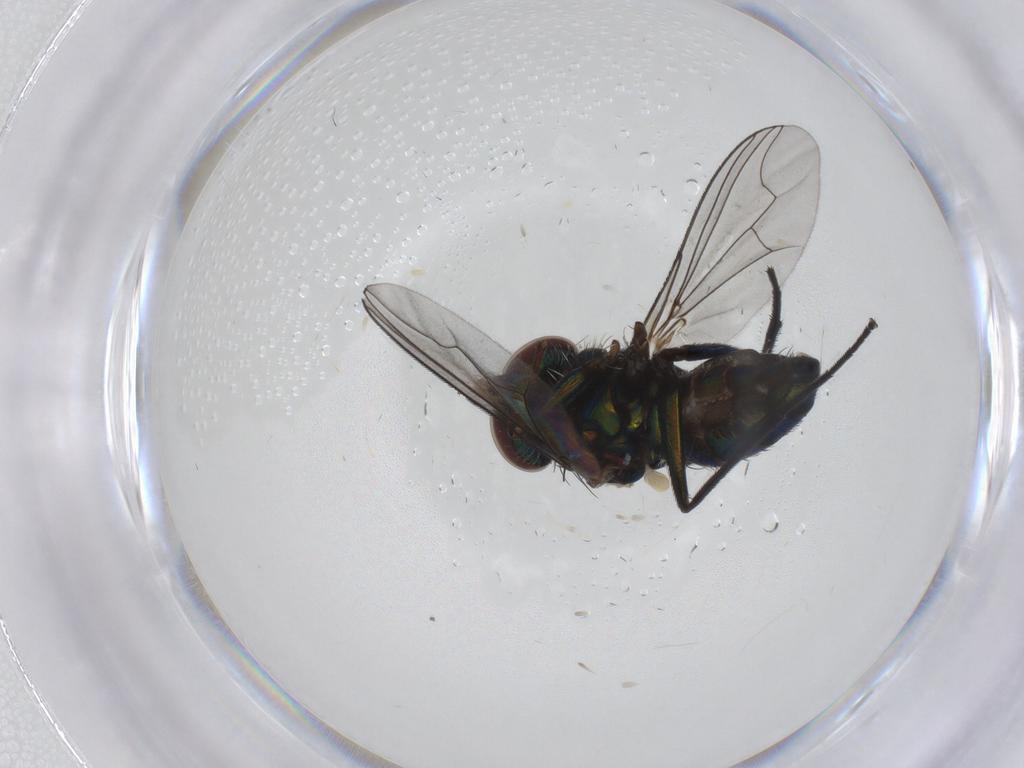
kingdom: Animalia
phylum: Arthropoda
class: Insecta
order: Diptera
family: Dolichopodidae
